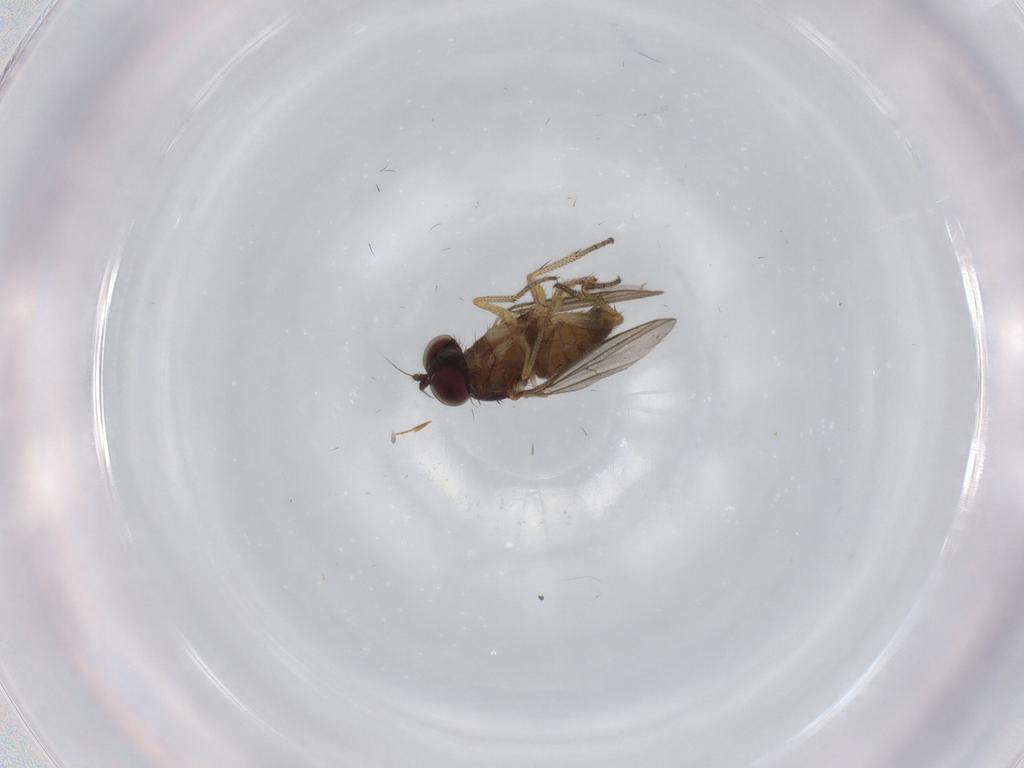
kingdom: Animalia
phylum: Arthropoda
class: Insecta
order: Diptera
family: Dolichopodidae
